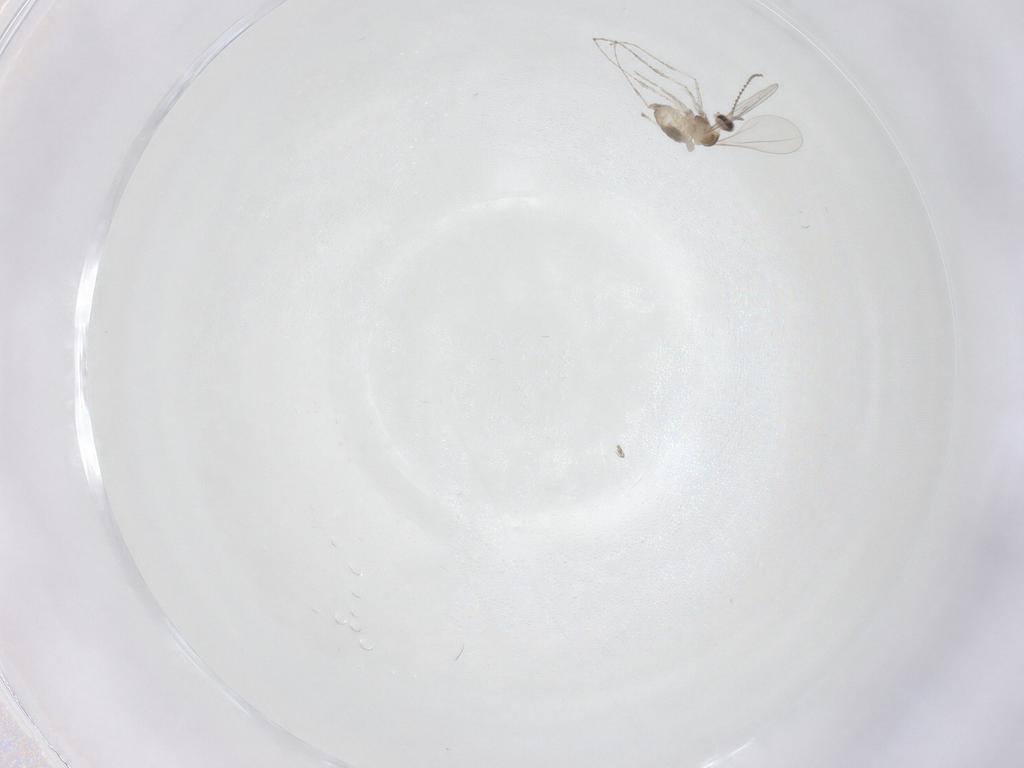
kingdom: Animalia
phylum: Arthropoda
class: Insecta
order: Diptera
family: Cecidomyiidae
